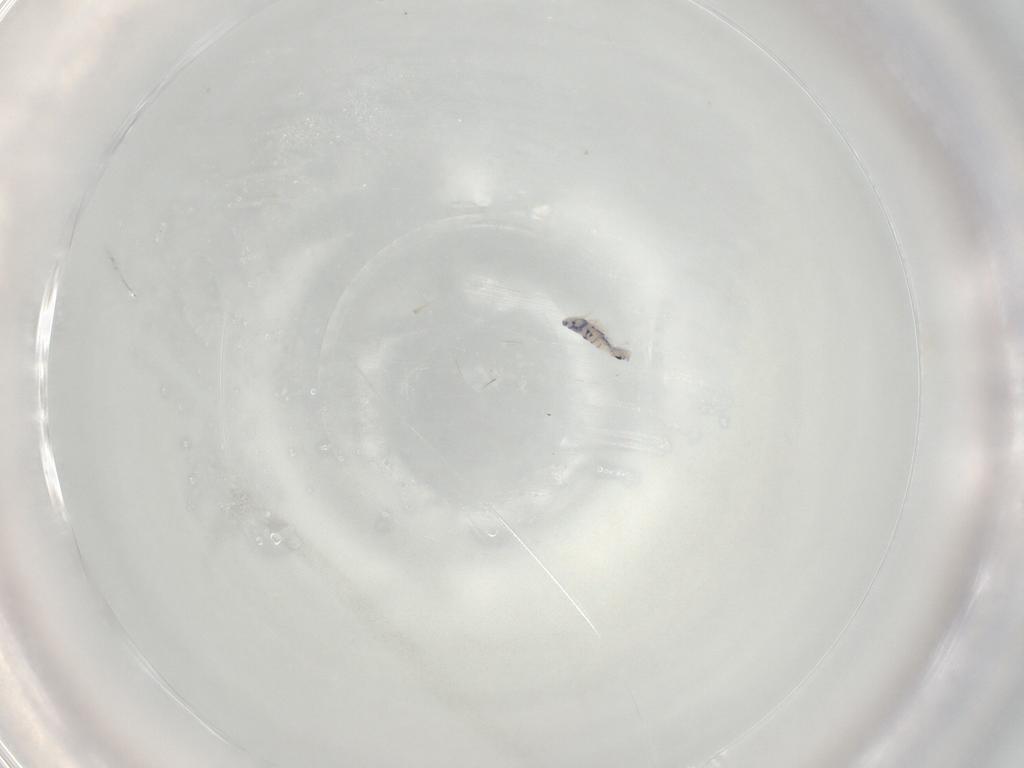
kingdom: Animalia
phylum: Arthropoda
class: Collembola
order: Entomobryomorpha
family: Entomobryidae
